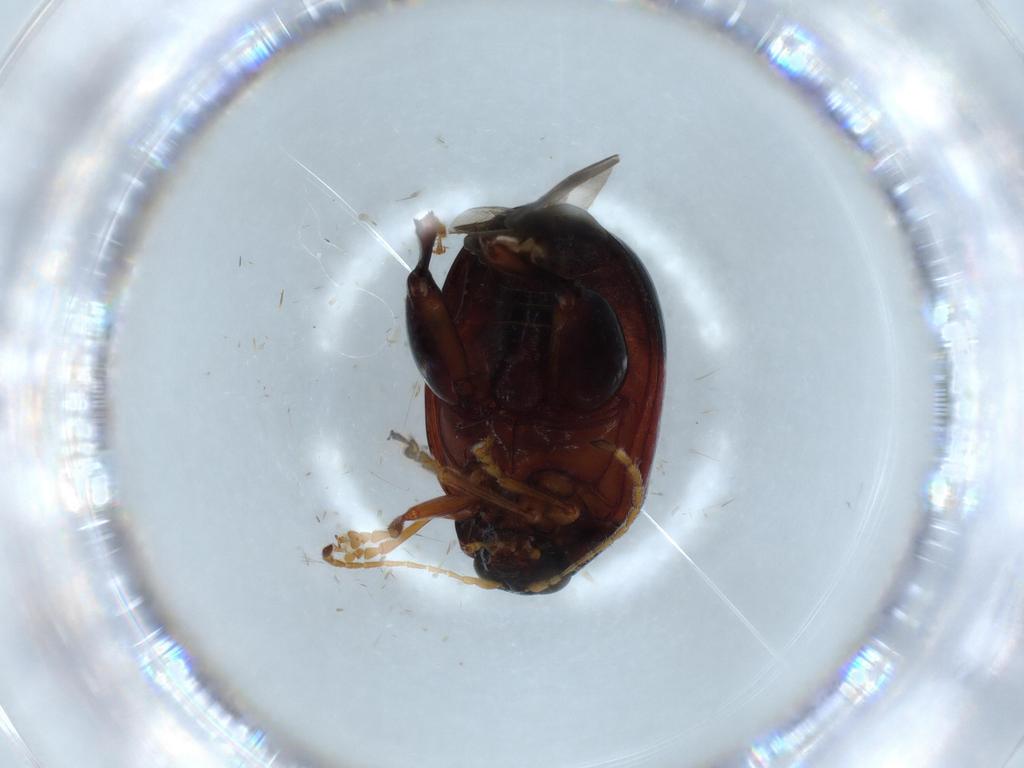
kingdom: Animalia
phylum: Arthropoda
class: Insecta
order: Coleoptera
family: Chrysomelidae
